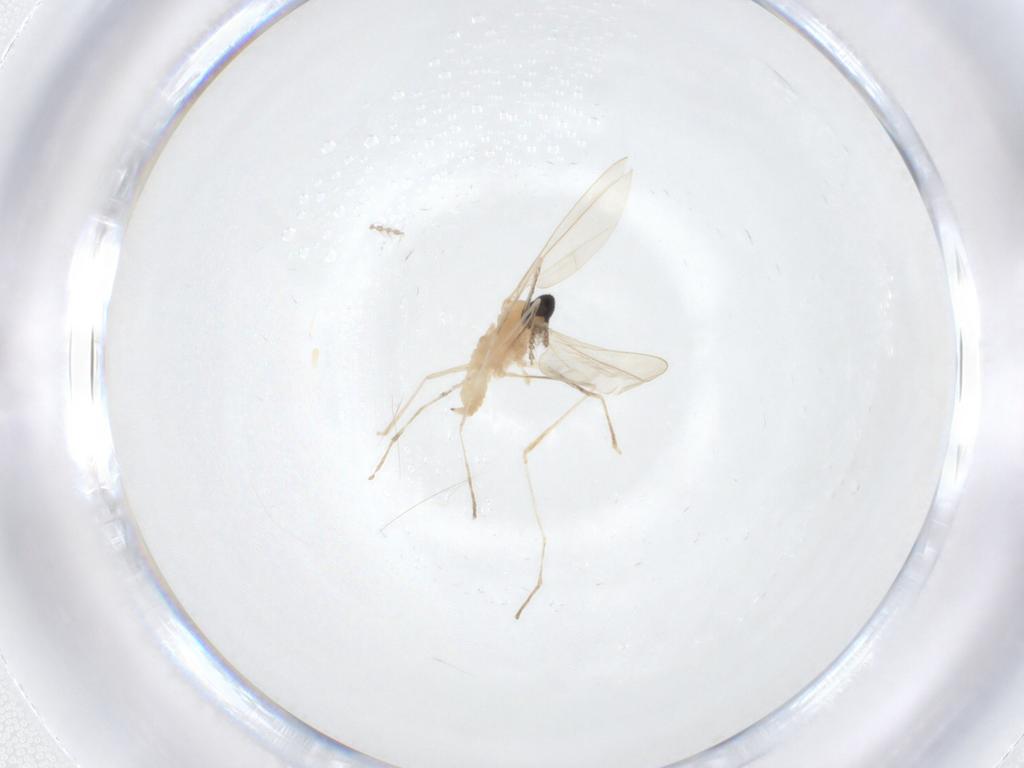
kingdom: Animalia
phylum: Arthropoda
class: Insecta
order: Diptera
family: Cecidomyiidae
